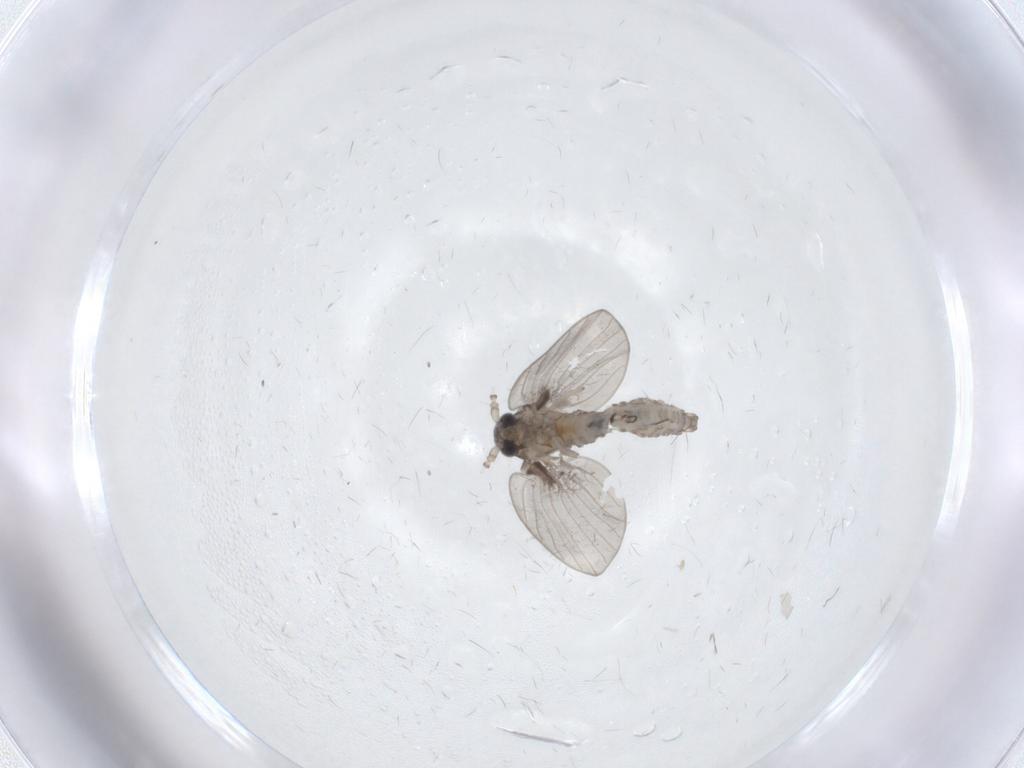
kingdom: Animalia
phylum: Arthropoda
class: Insecta
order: Diptera
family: Psychodidae
